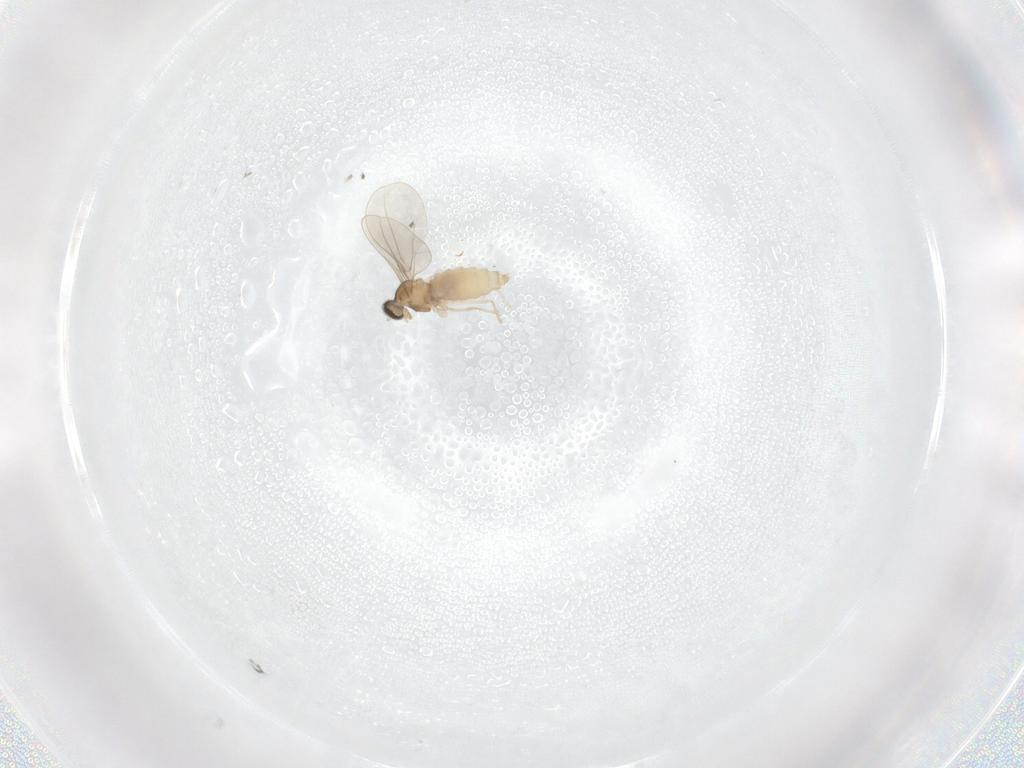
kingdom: Animalia
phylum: Arthropoda
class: Insecta
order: Diptera
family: Cecidomyiidae
